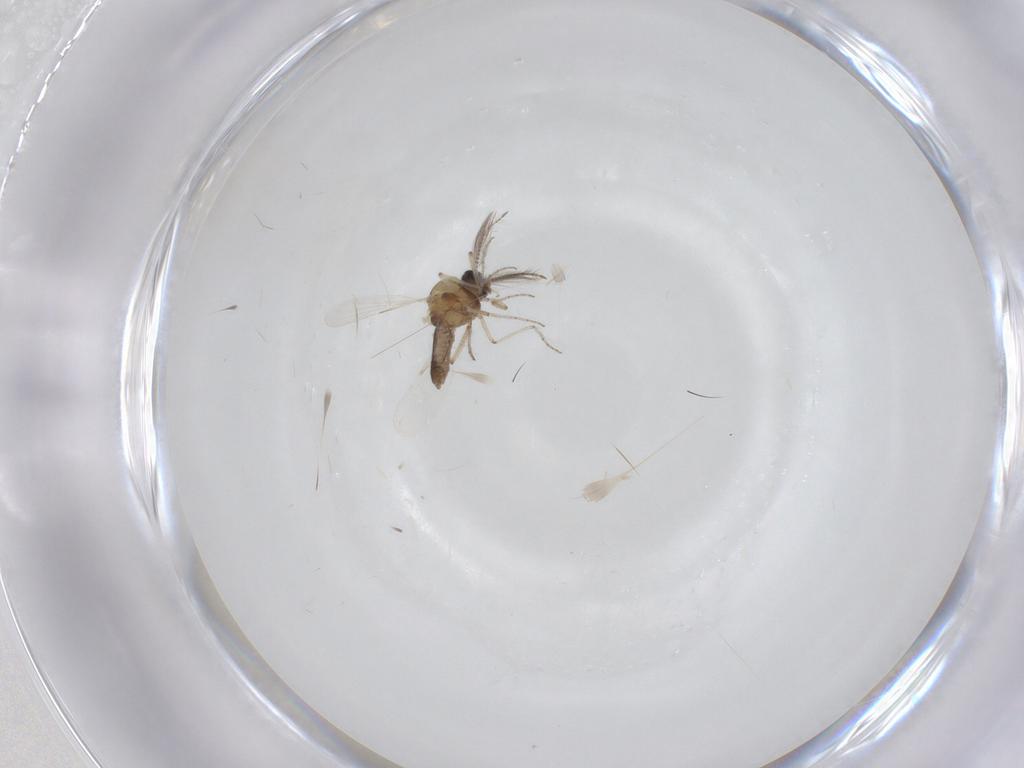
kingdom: Animalia
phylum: Arthropoda
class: Insecta
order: Diptera
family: Ceratopogonidae
